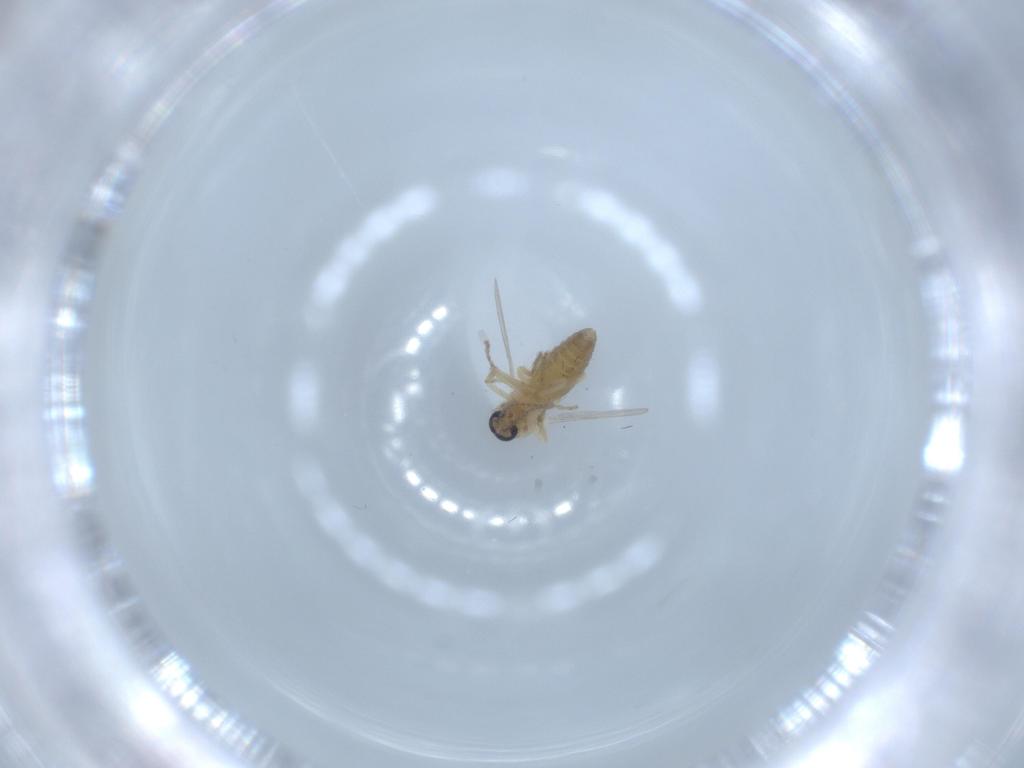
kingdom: Animalia
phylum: Arthropoda
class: Insecta
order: Diptera
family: Ceratopogonidae
